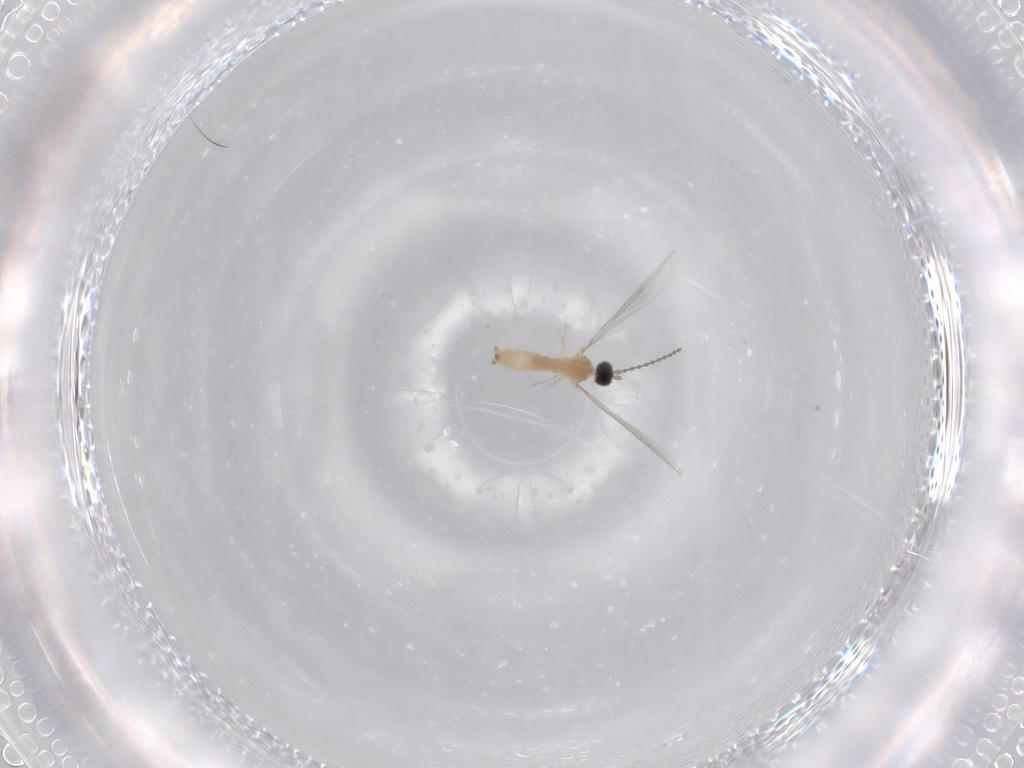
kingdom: Animalia
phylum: Arthropoda
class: Insecta
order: Diptera
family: Cecidomyiidae
